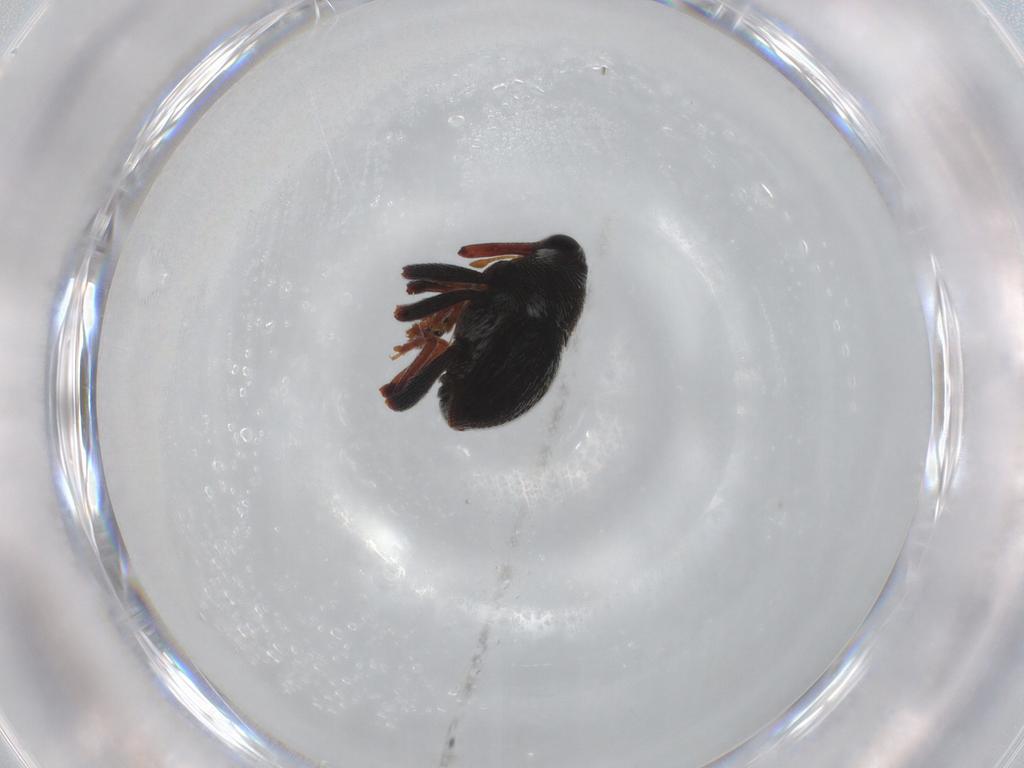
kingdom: Animalia
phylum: Arthropoda
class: Insecta
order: Coleoptera
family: Curculionidae
